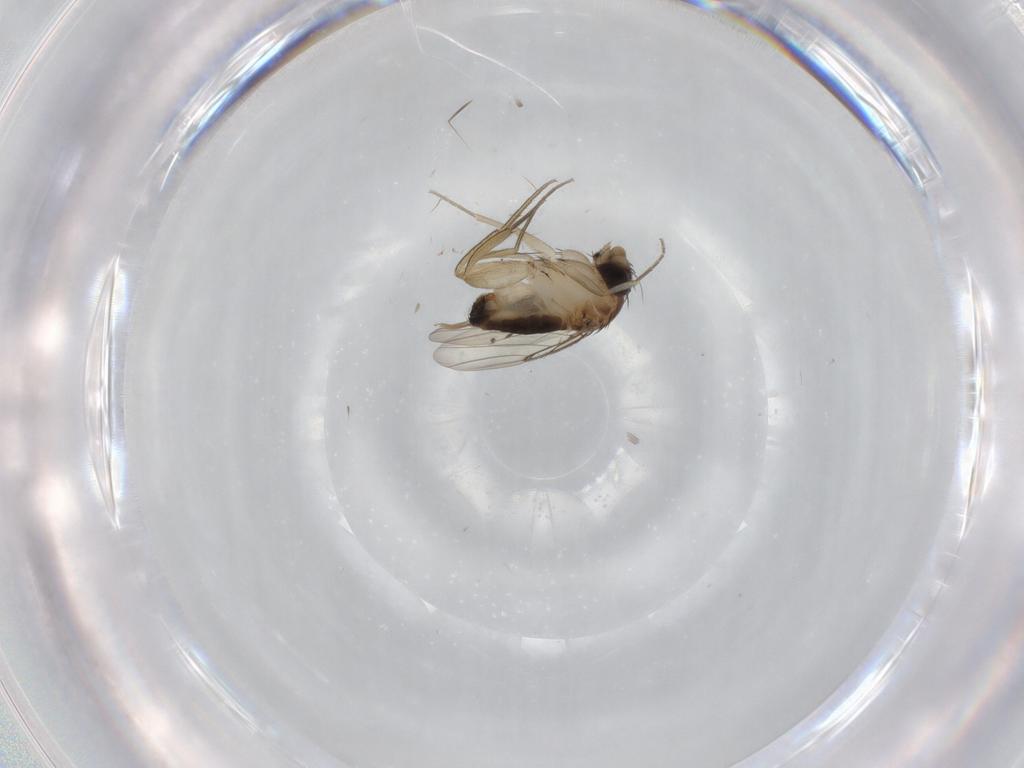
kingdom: Animalia
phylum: Arthropoda
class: Insecta
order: Diptera
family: Phoridae
